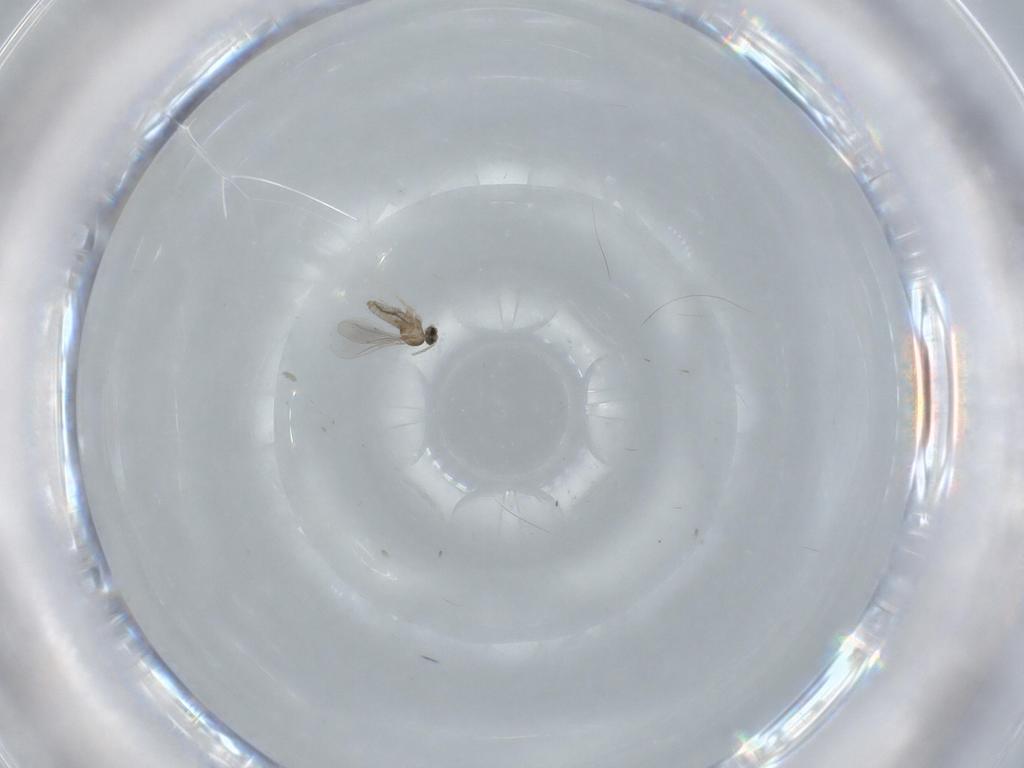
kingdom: Animalia
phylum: Arthropoda
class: Insecta
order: Diptera
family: Cecidomyiidae
